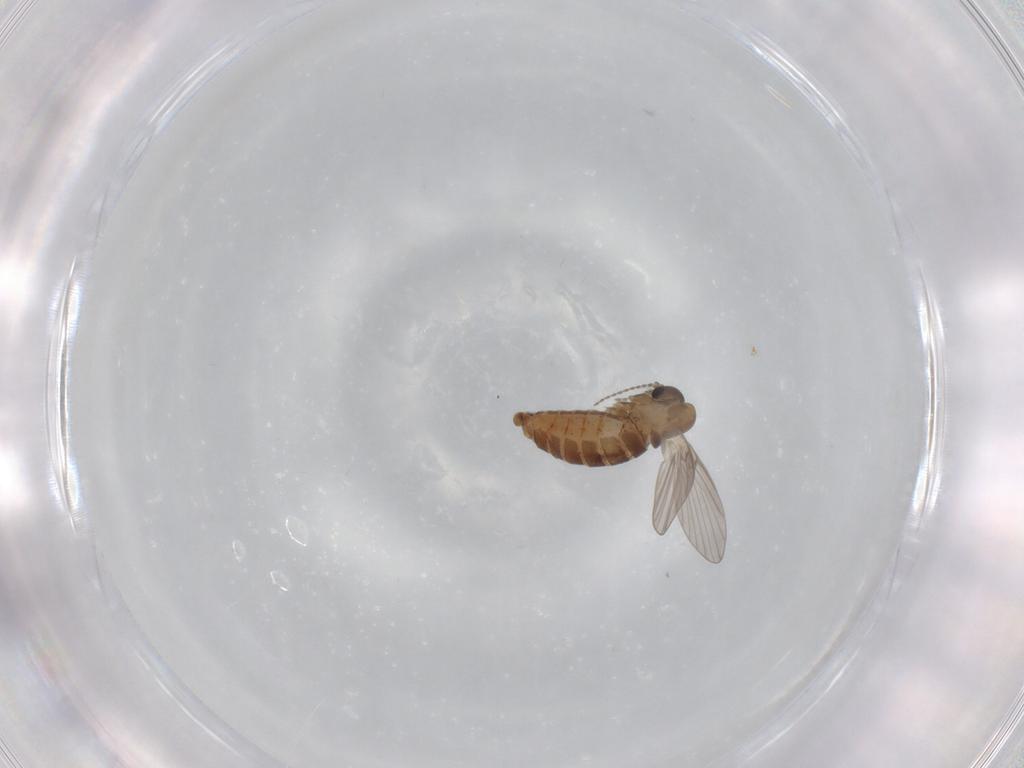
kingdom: Animalia
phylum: Arthropoda
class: Insecta
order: Diptera
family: Psychodidae
